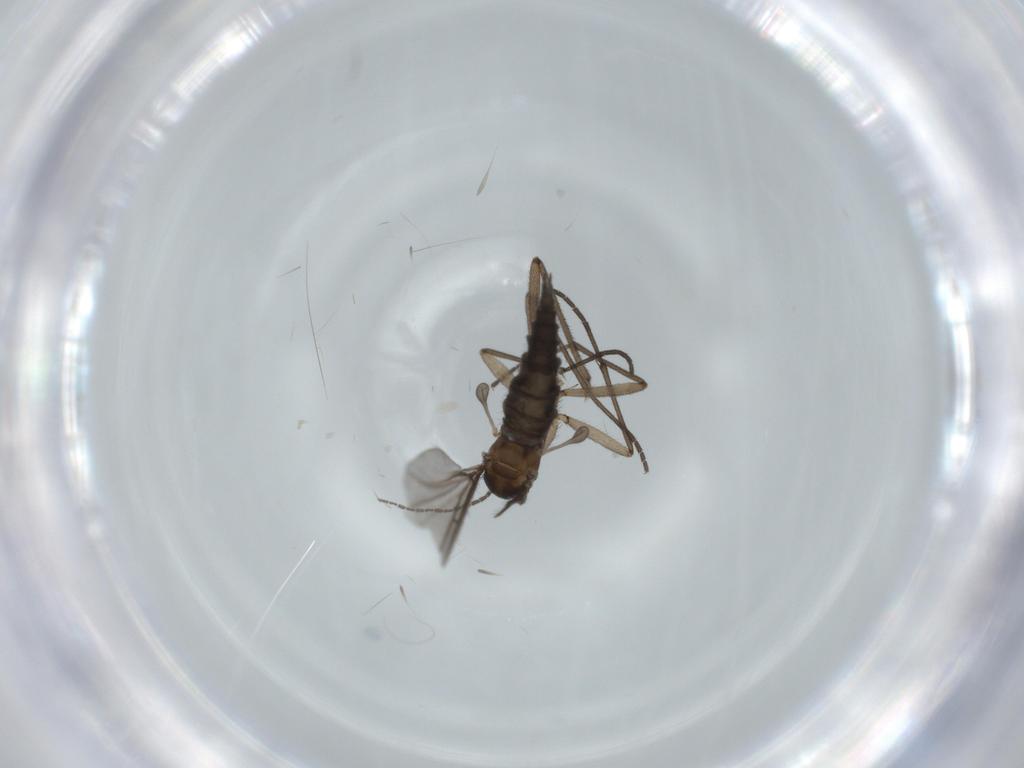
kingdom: Animalia
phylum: Arthropoda
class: Insecta
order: Diptera
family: Sciaridae
